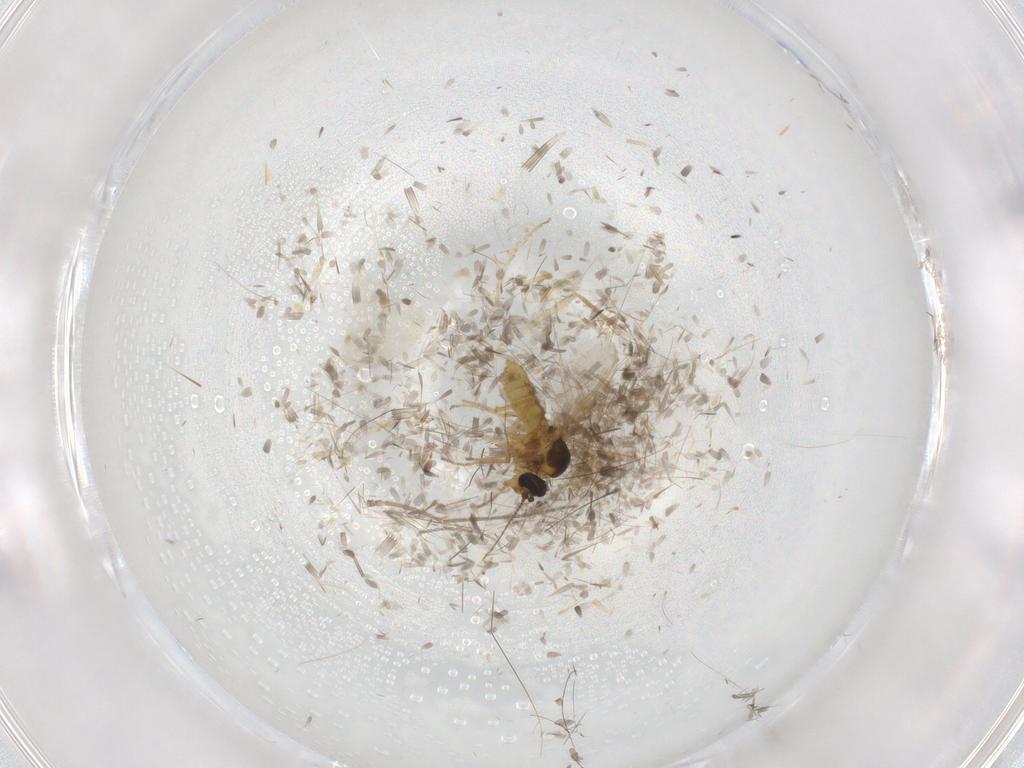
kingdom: Animalia
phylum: Arthropoda
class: Insecta
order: Diptera
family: Ceratopogonidae
